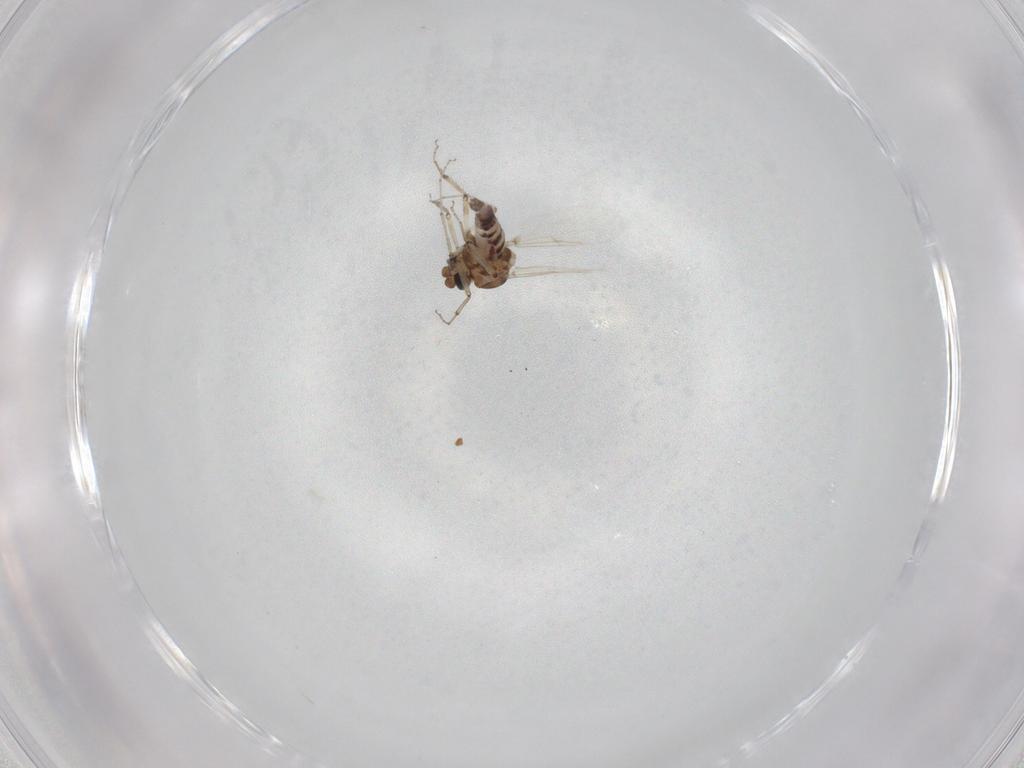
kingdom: Animalia
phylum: Arthropoda
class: Insecta
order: Diptera
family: Ceratopogonidae
